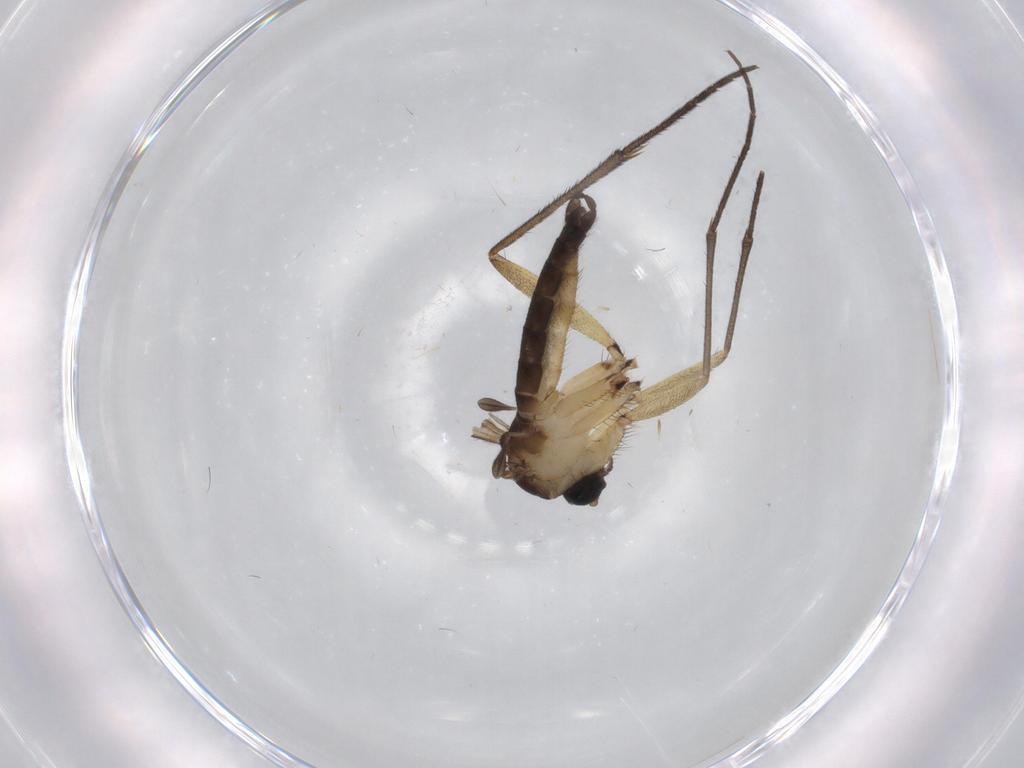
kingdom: Animalia
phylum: Arthropoda
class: Insecta
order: Diptera
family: Sciaridae
